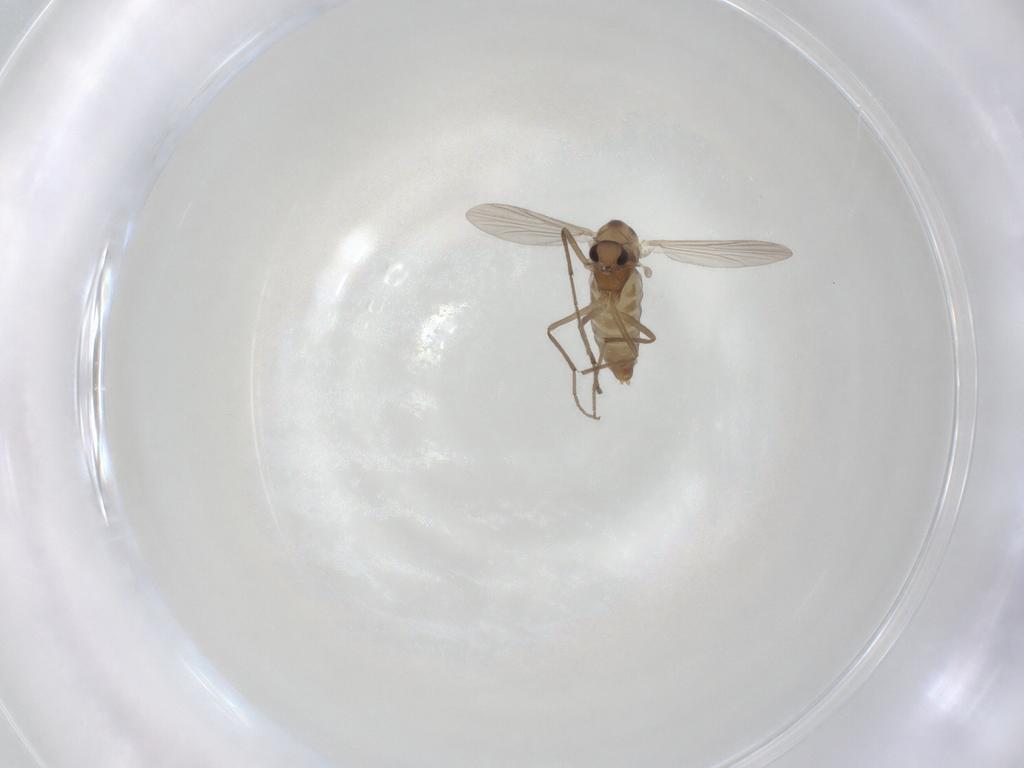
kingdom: Animalia
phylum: Arthropoda
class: Insecta
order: Diptera
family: Chironomidae
